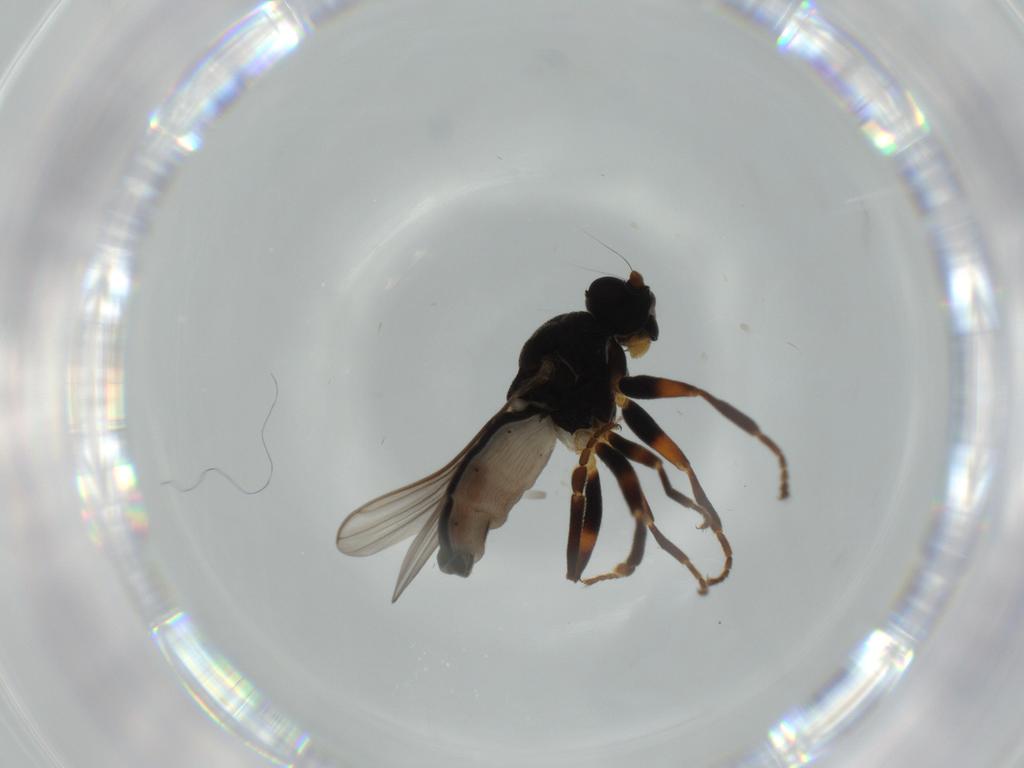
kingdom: Animalia
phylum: Arthropoda
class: Insecta
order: Diptera
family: Sphaeroceridae
